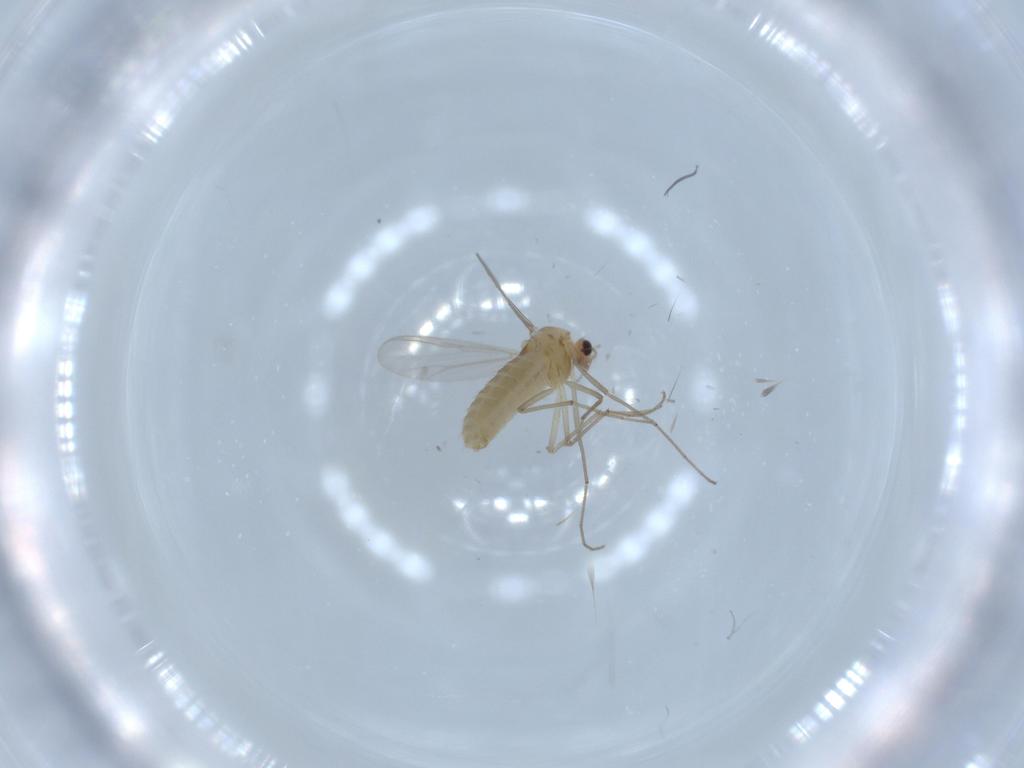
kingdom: Animalia
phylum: Arthropoda
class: Insecta
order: Diptera
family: Chironomidae
